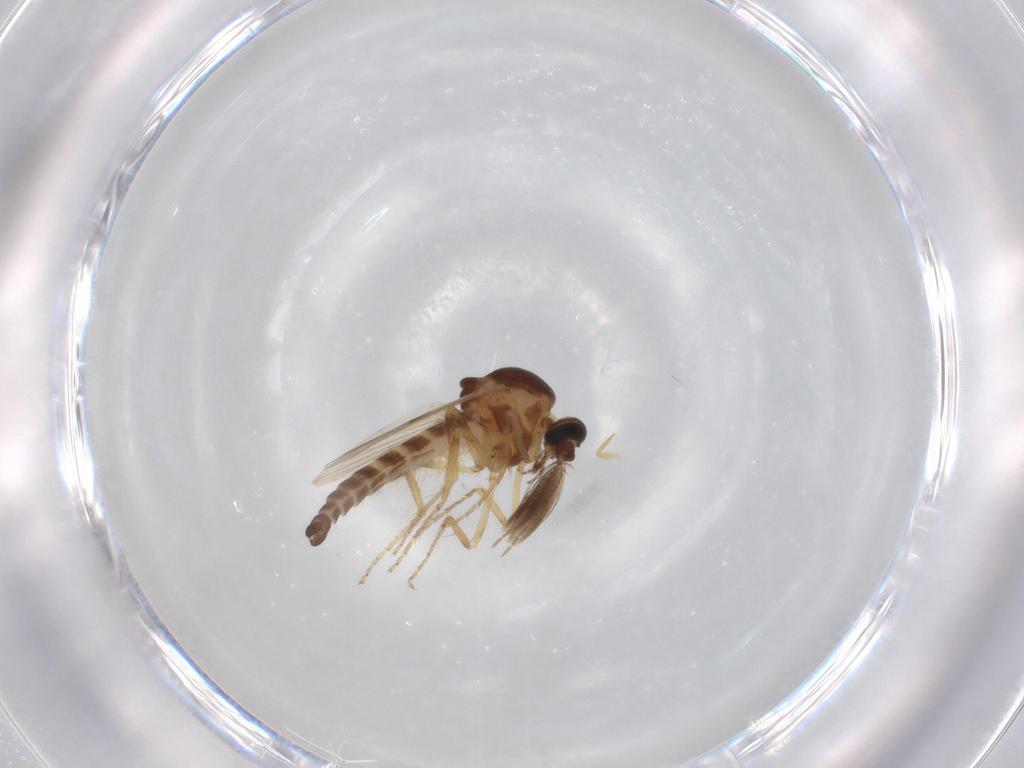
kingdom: Animalia
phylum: Arthropoda
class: Insecta
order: Diptera
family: Ceratopogonidae
